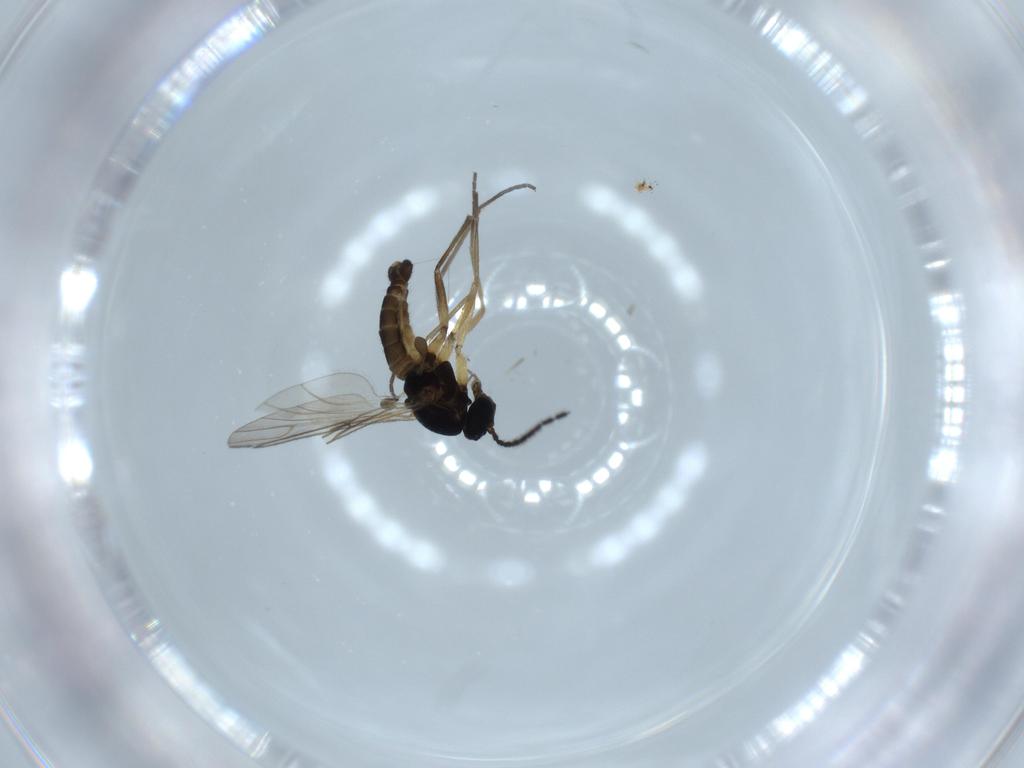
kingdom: Animalia
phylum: Arthropoda
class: Insecta
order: Diptera
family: Sciaridae
